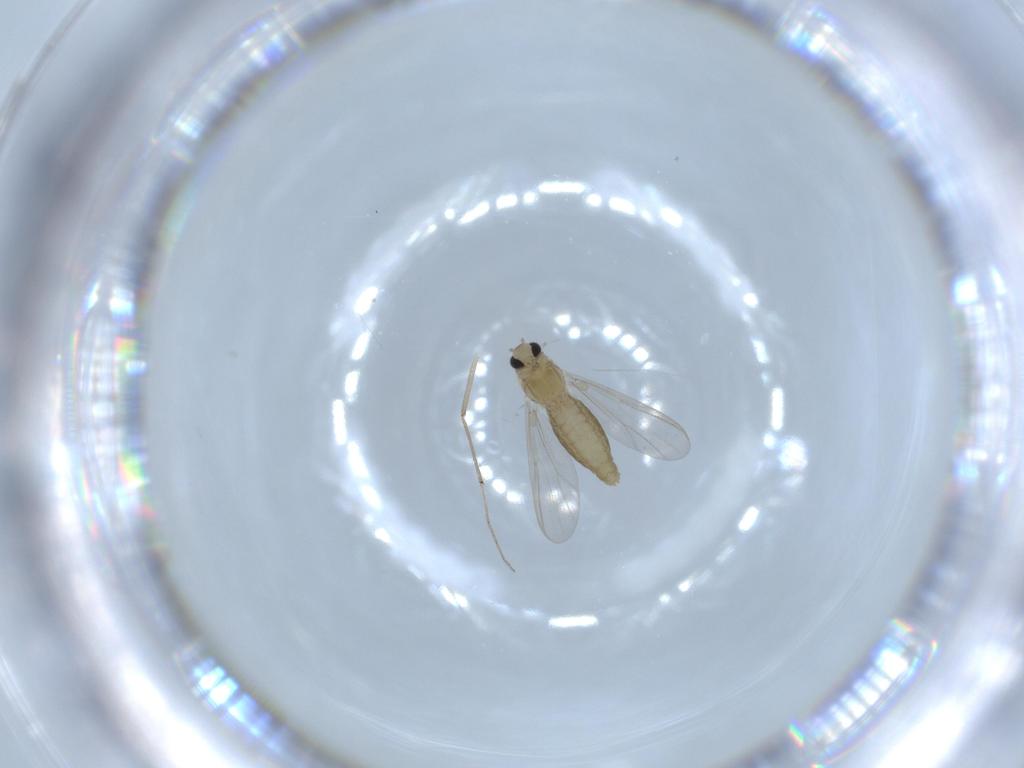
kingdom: Animalia
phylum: Arthropoda
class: Insecta
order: Diptera
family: Chironomidae
